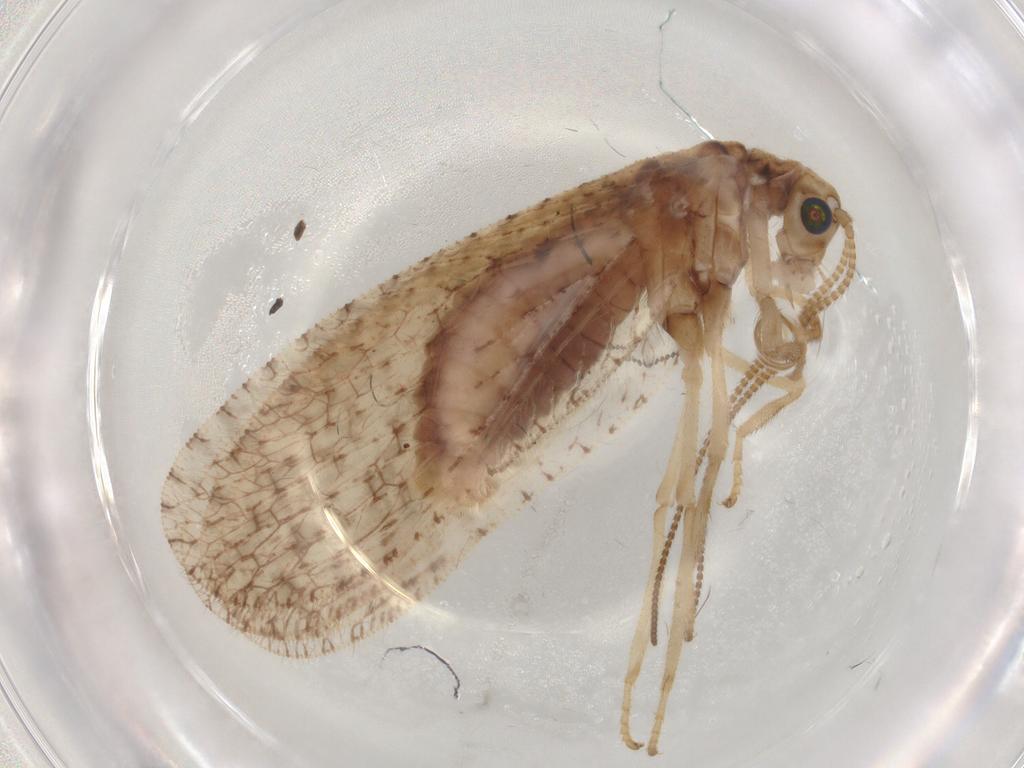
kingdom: Animalia
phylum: Arthropoda
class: Insecta
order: Neuroptera
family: Hemerobiidae
